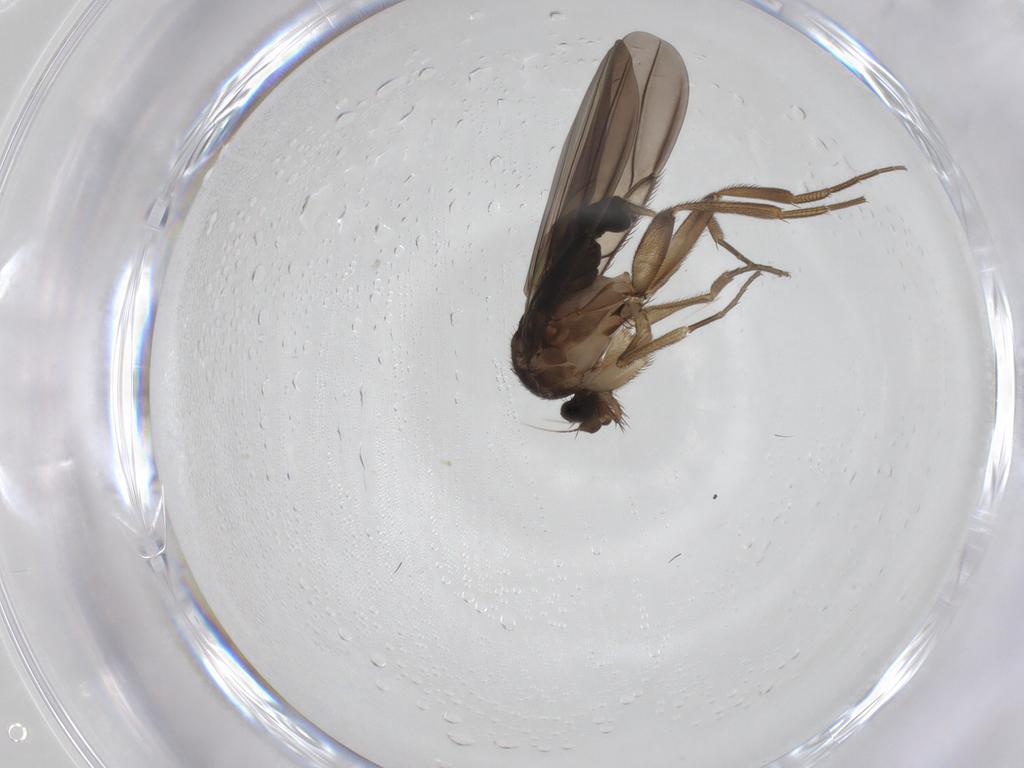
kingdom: Animalia
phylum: Arthropoda
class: Insecta
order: Diptera
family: Phoridae
